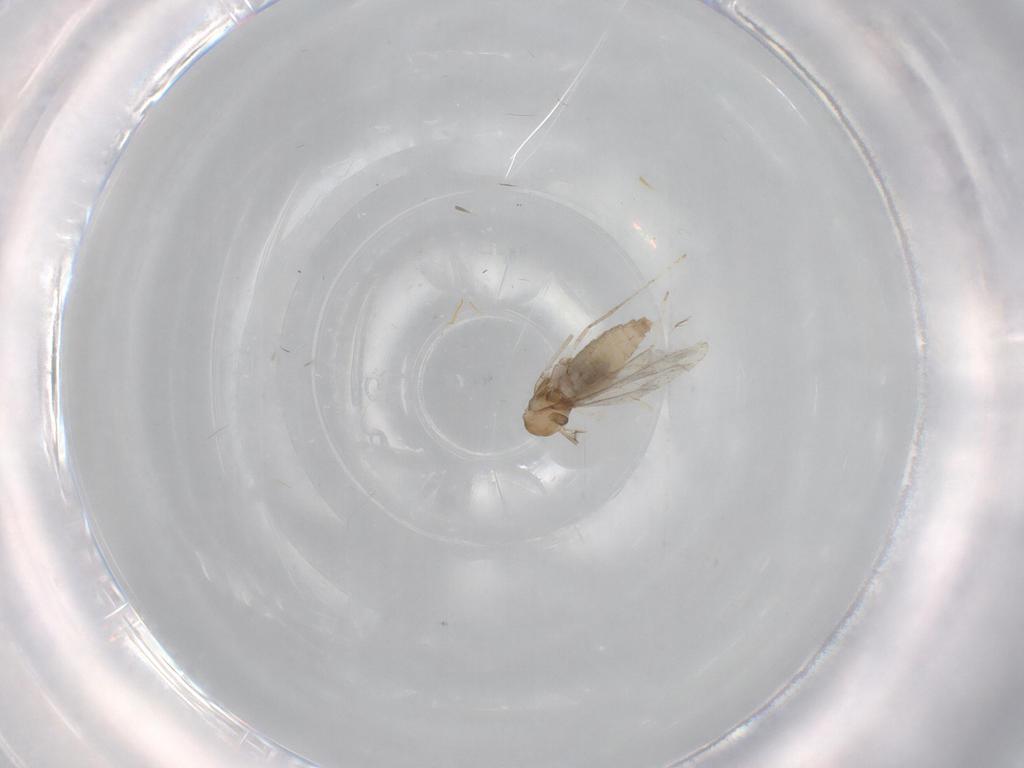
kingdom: Animalia
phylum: Arthropoda
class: Insecta
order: Diptera
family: Cecidomyiidae
